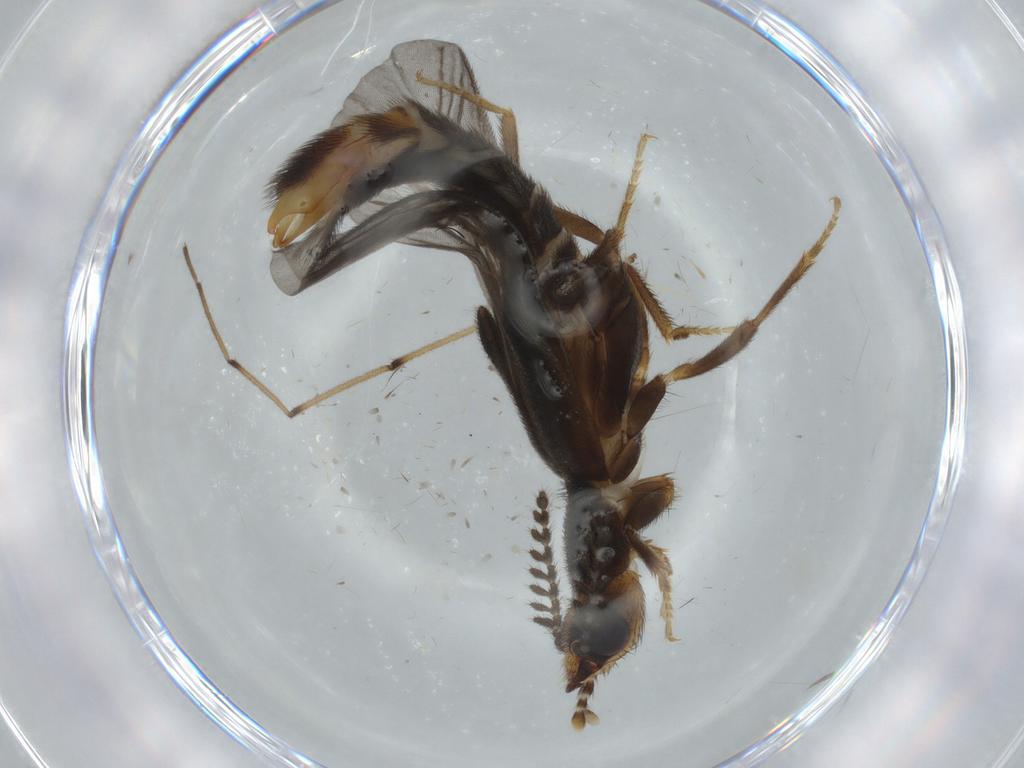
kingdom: Animalia
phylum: Arthropoda
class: Insecta
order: Coleoptera
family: Phengodidae
